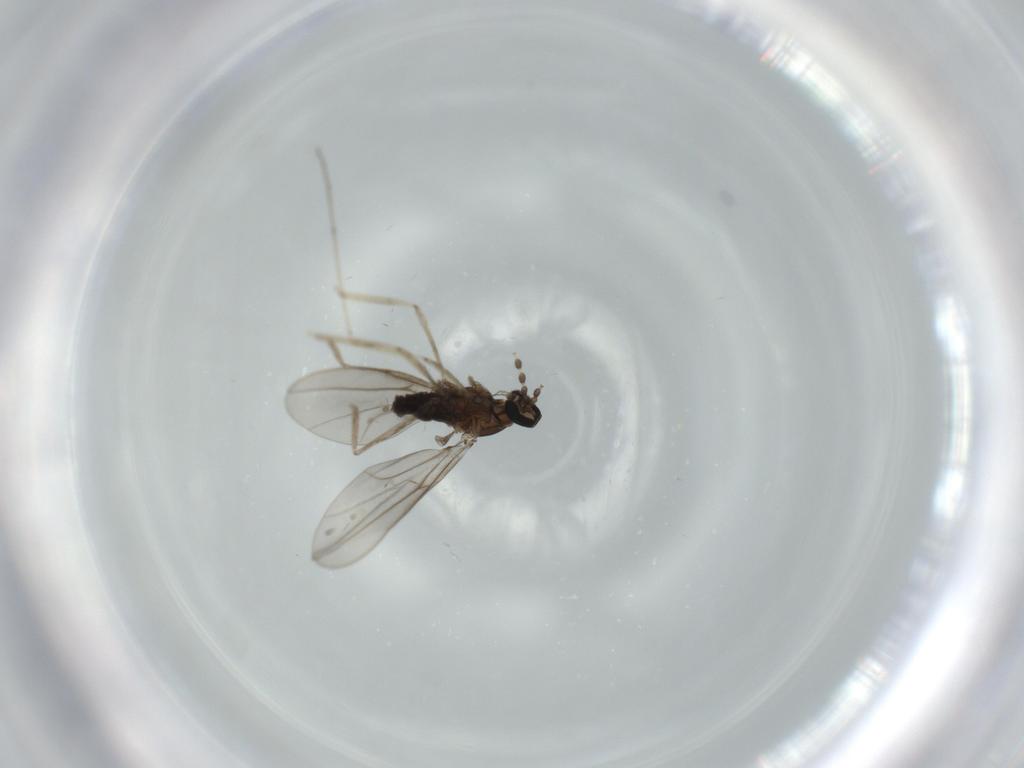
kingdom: Animalia
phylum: Arthropoda
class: Insecta
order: Diptera
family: Cecidomyiidae
